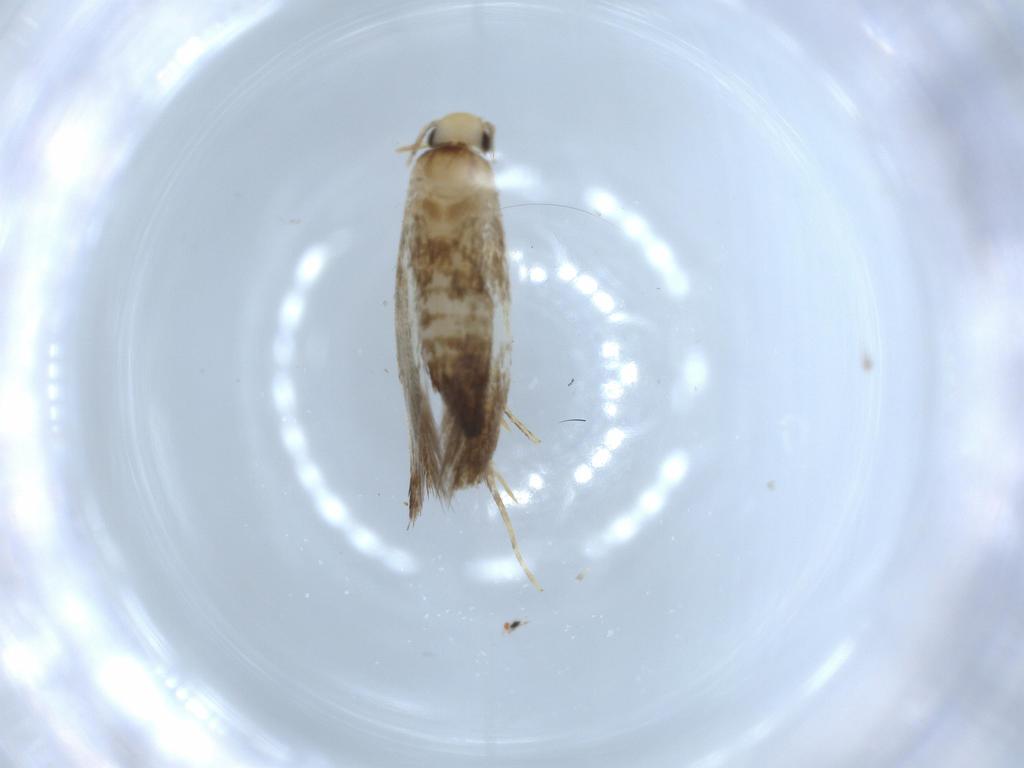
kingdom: Animalia
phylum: Arthropoda
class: Insecta
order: Lepidoptera
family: Tineidae
